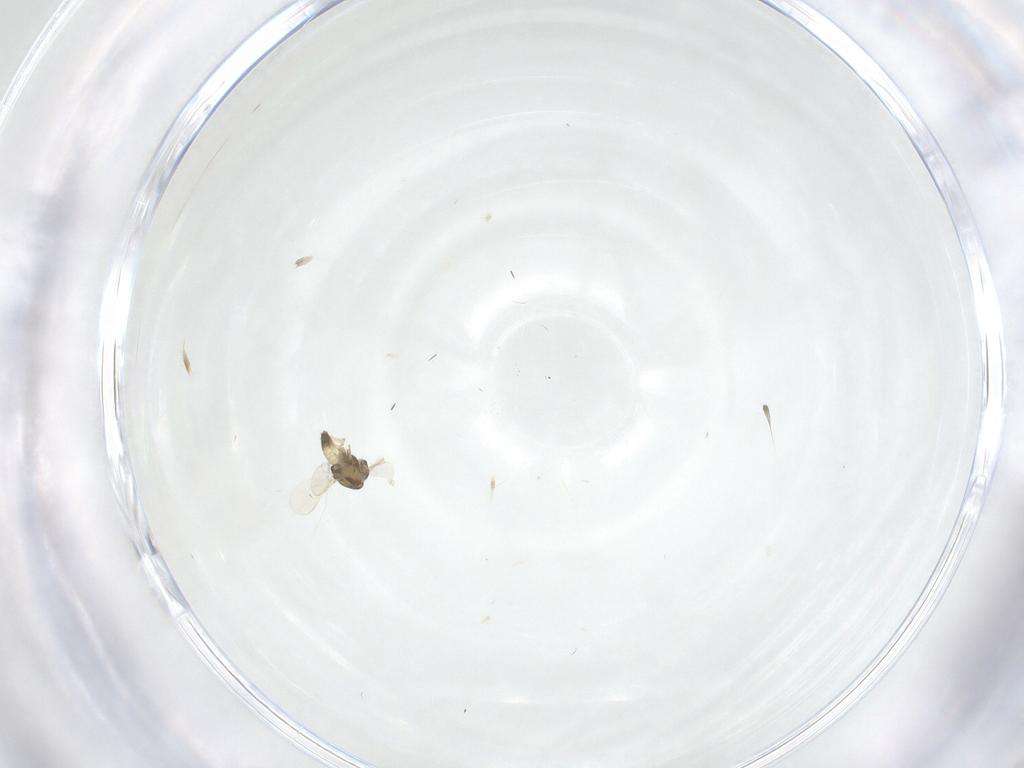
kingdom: Animalia
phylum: Arthropoda
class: Insecta
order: Diptera
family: Chironomidae
